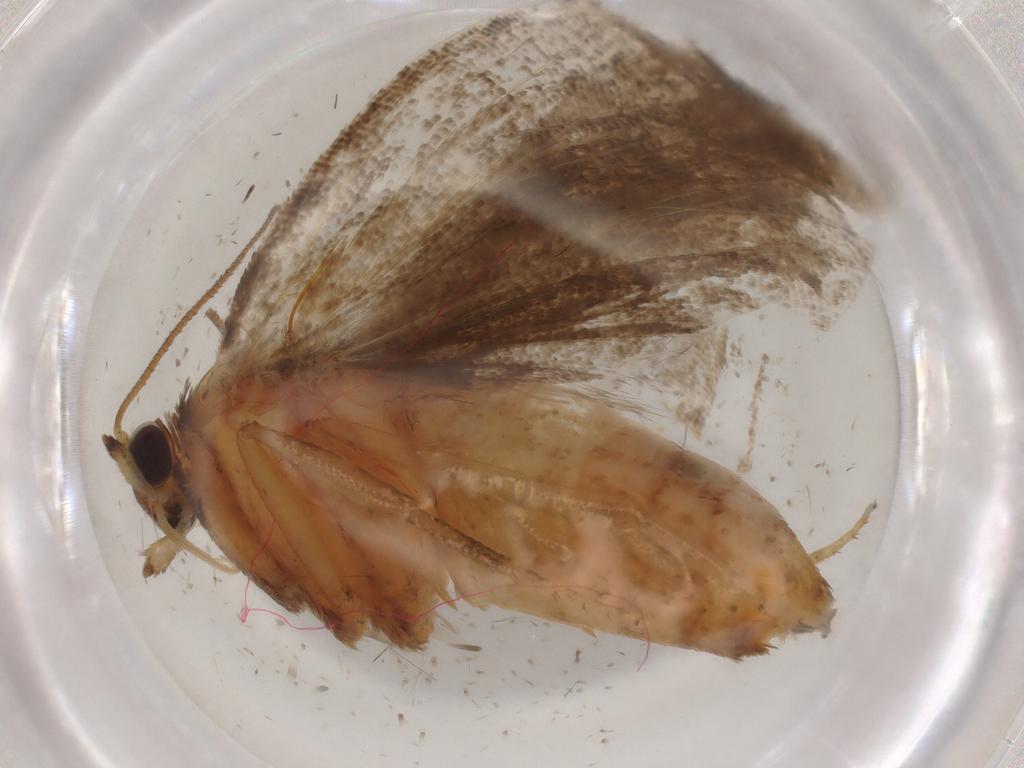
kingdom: Animalia
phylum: Arthropoda
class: Insecta
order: Lepidoptera
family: Tortricidae
